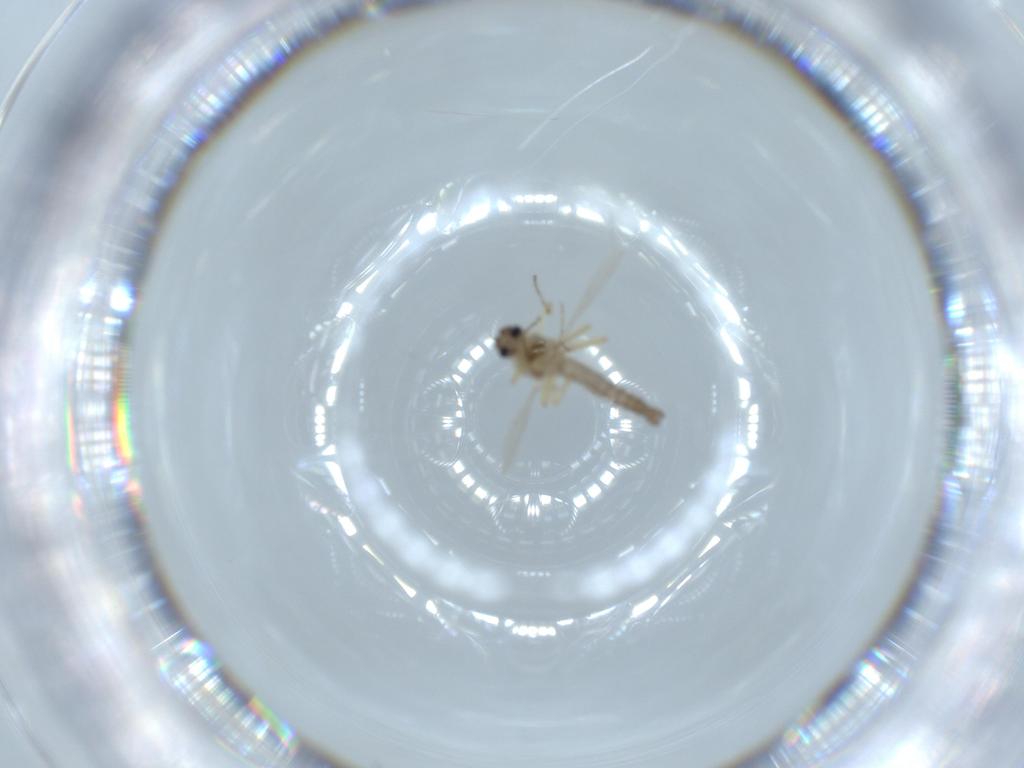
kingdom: Animalia
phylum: Arthropoda
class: Insecta
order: Diptera
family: Ceratopogonidae
